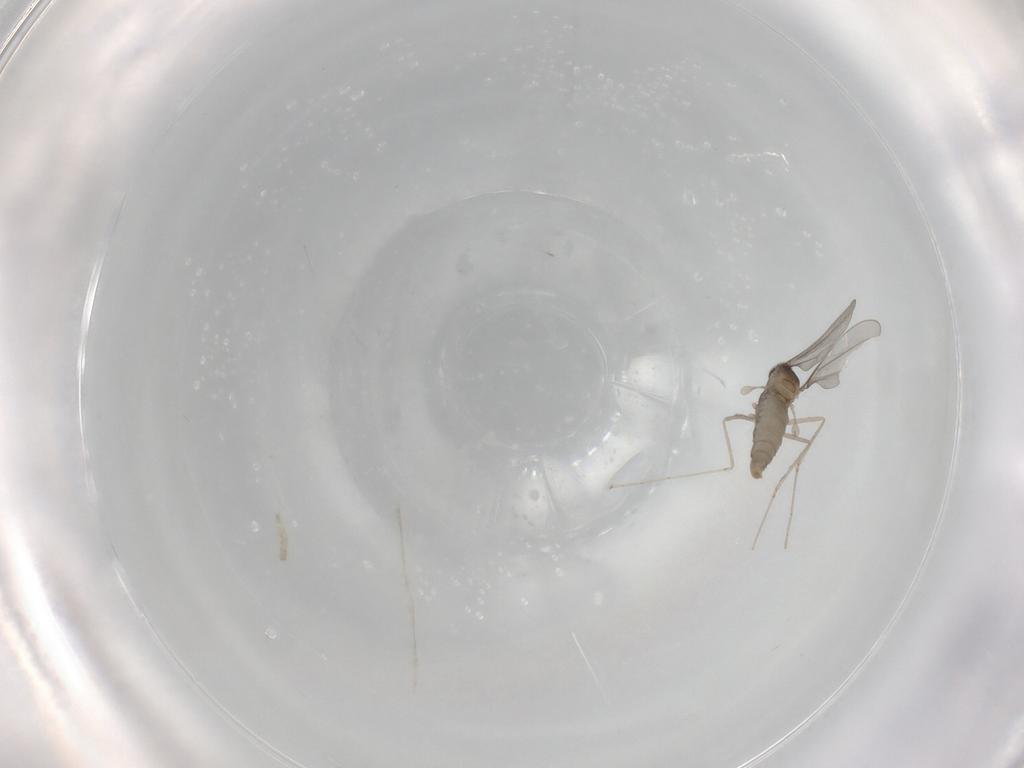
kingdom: Animalia
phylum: Arthropoda
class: Insecta
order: Diptera
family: Cecidomyiidae
